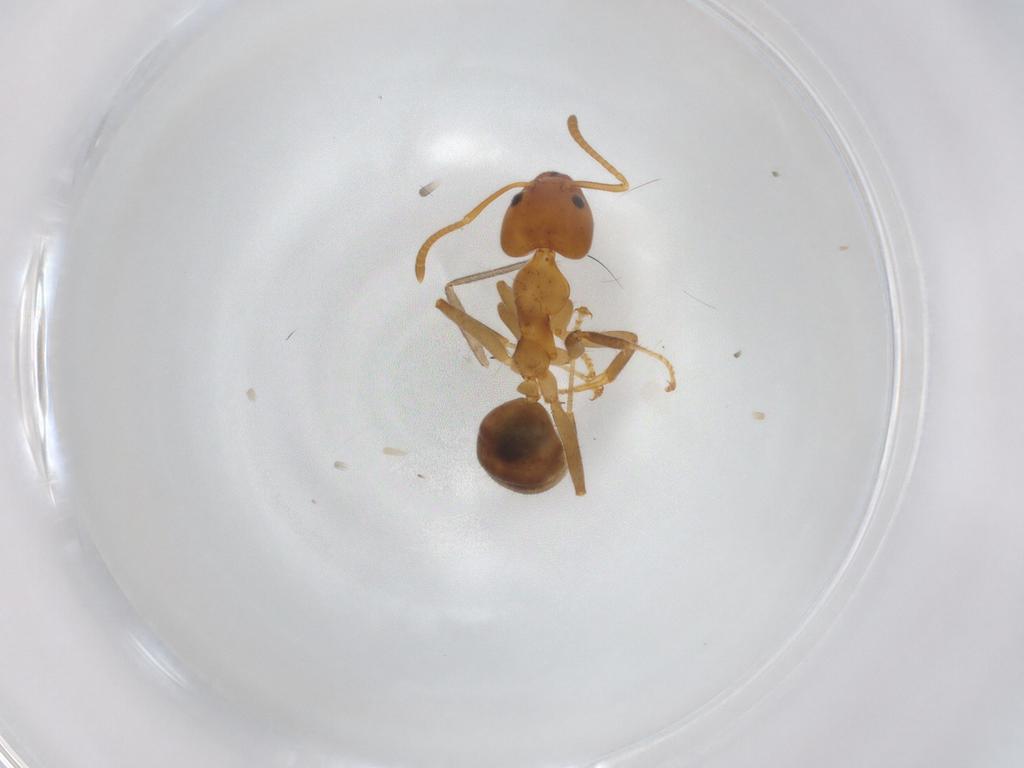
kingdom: Animalia
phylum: Arthropoda
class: Insecta
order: Hymenoptera
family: Formicidae
